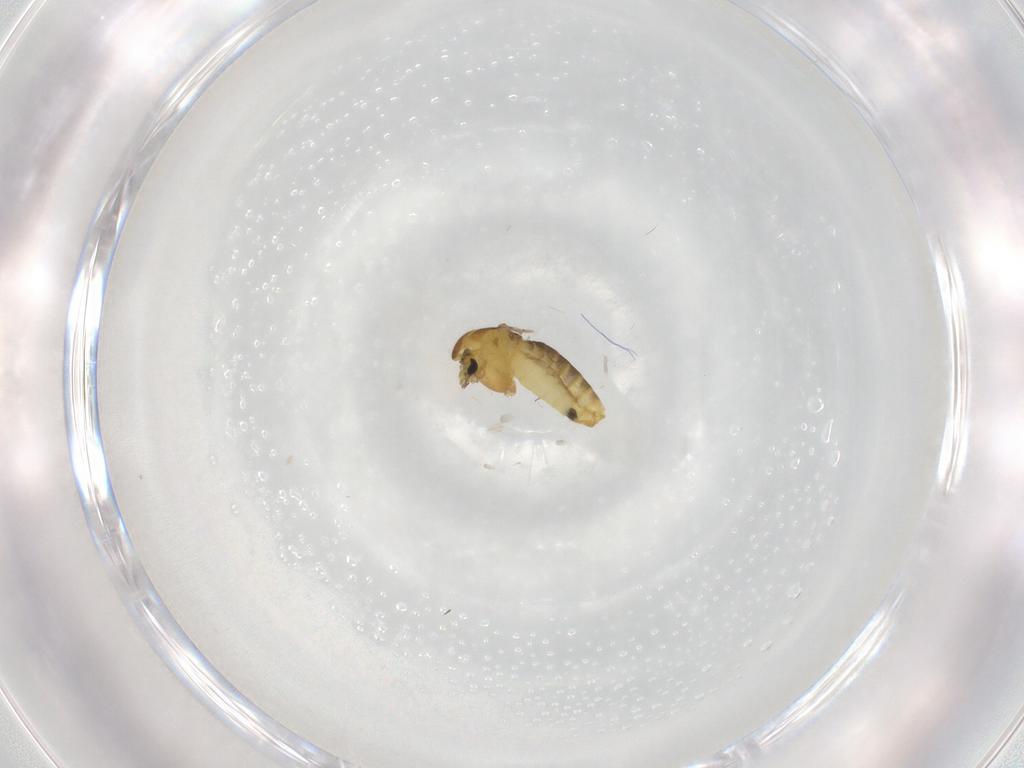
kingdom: Animalia
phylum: Arthropoda
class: Insecta
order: Diptera
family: Chironomidae
